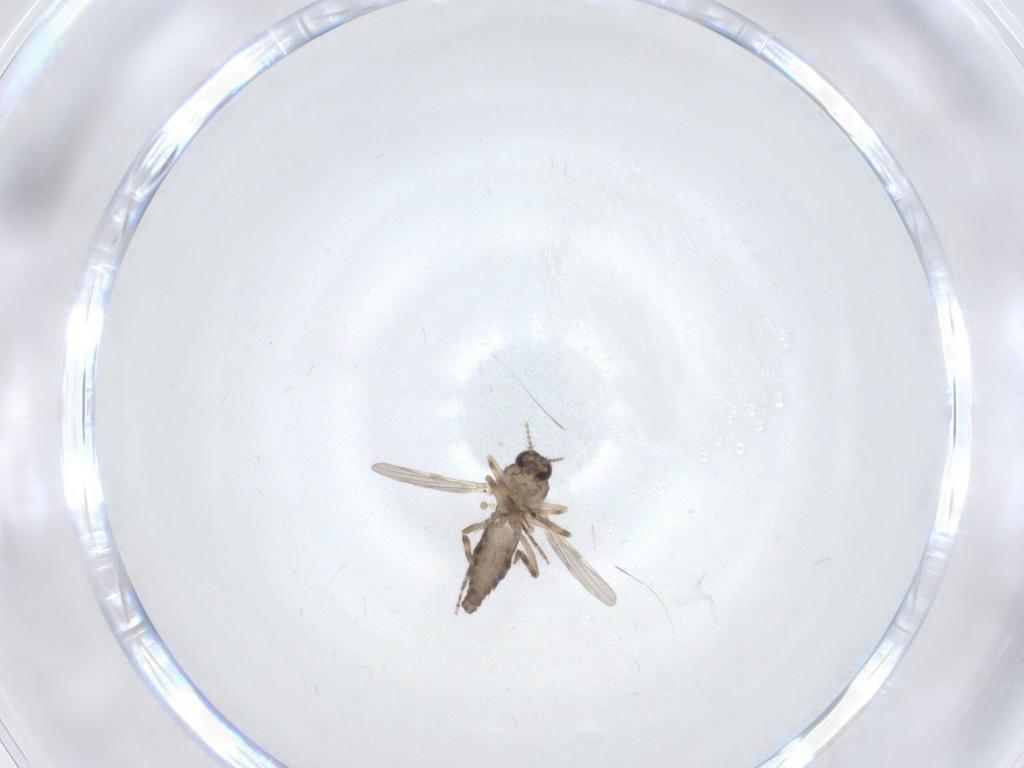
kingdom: Animalia
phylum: Arthropoda
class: Insecta
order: Diptera
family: Ceratopogonidae
